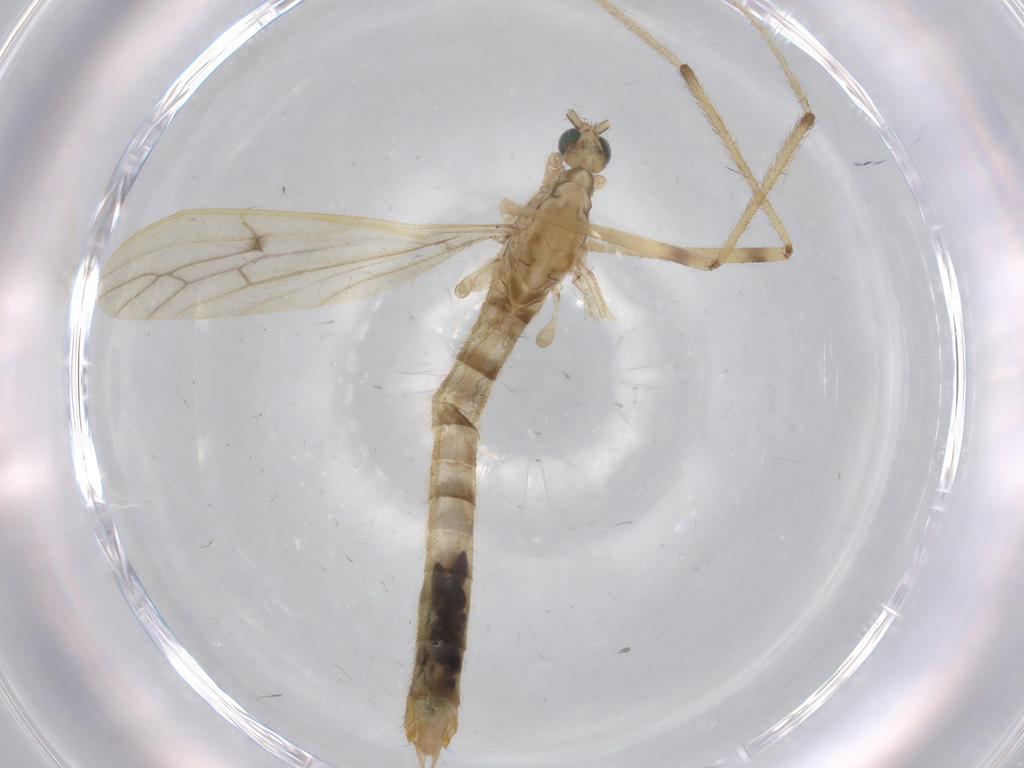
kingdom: Animalia
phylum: Arthropoda
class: Insecta
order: Diptera
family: Limoniidae
